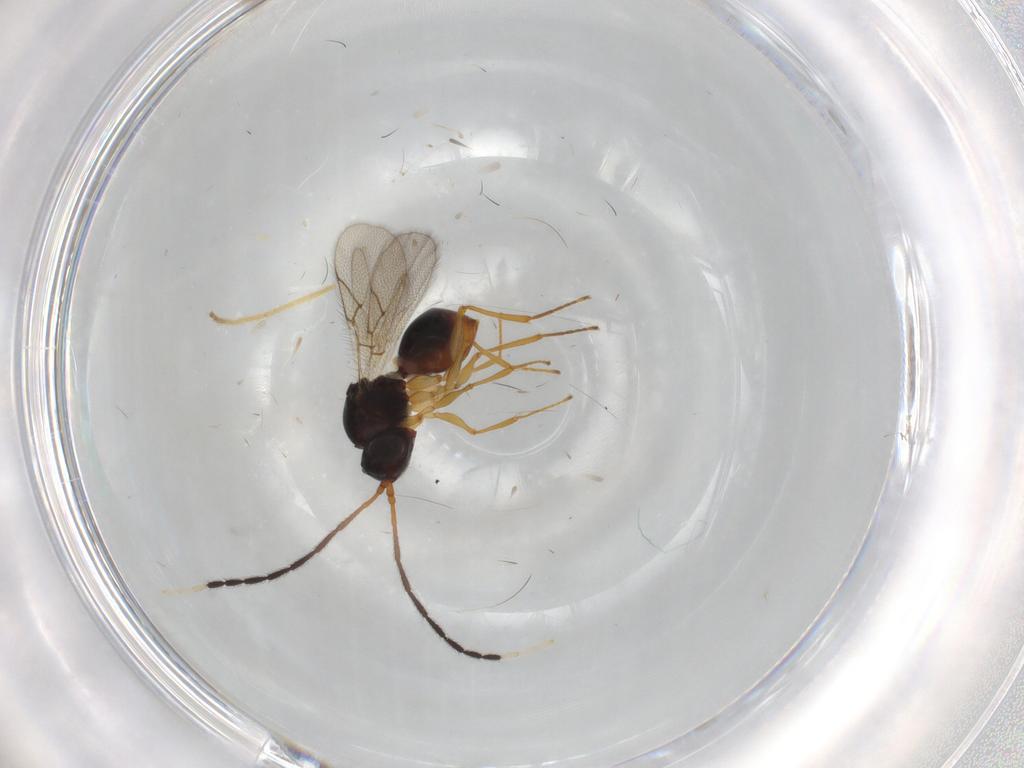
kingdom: Animalia
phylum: Arthropoda
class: Insecta
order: Hymenoptera
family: Figitidae
